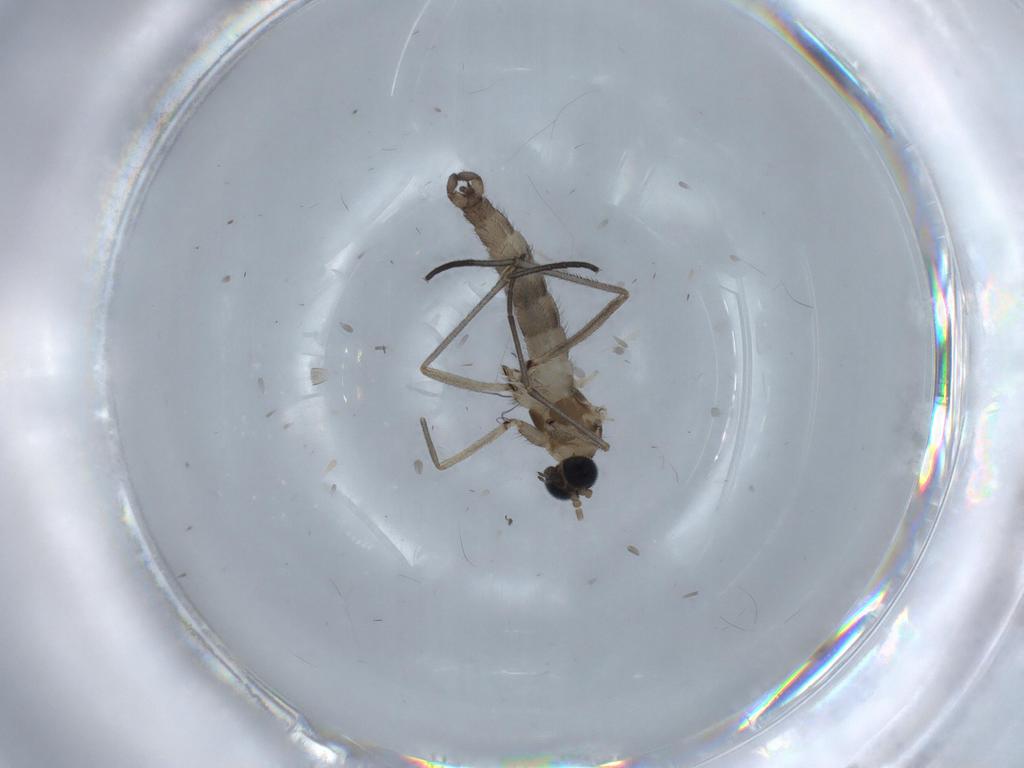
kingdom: Animalia
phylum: Arthropoda
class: Insecta
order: Diptera
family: Sciaridae
